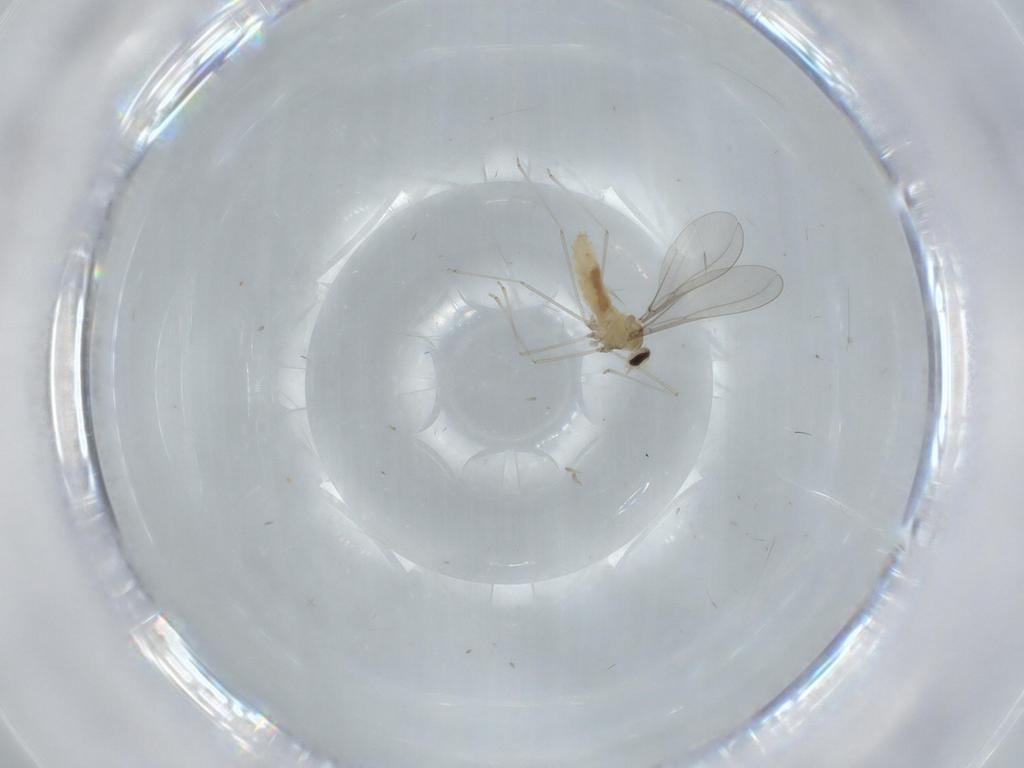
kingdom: Animalia
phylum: Arthropoda
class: Insecta
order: Diptera
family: Cecidomyiidae
